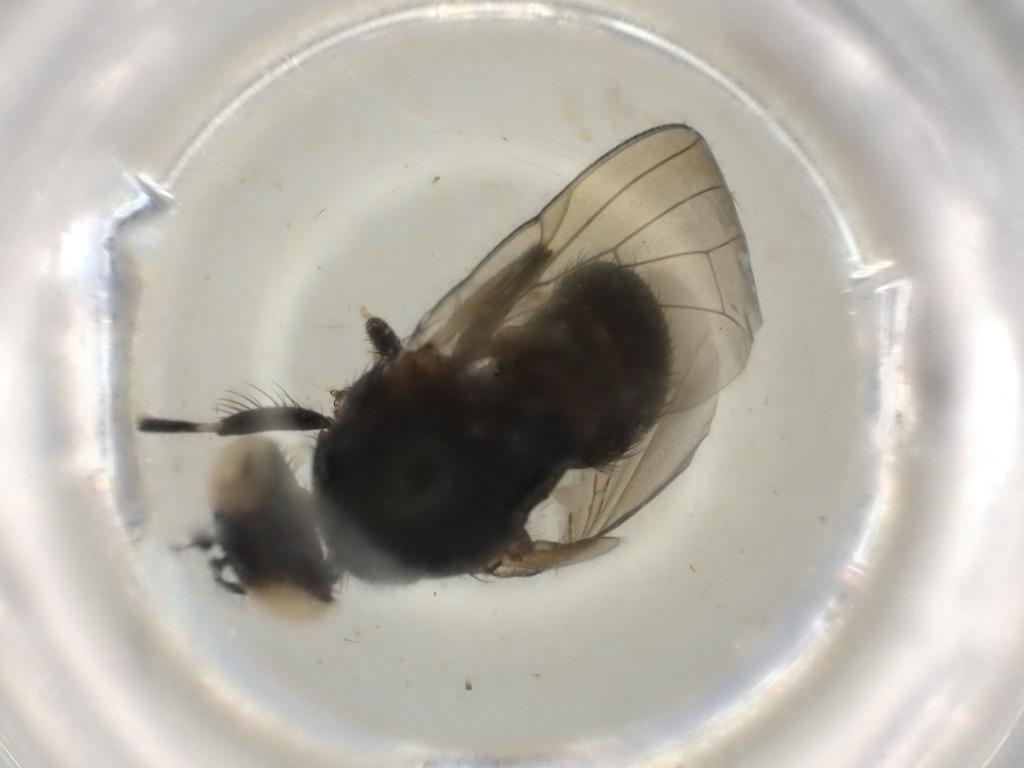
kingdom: Animalia
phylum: Arthropoda
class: Insecta
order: Diptera
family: Lauxaniidae
